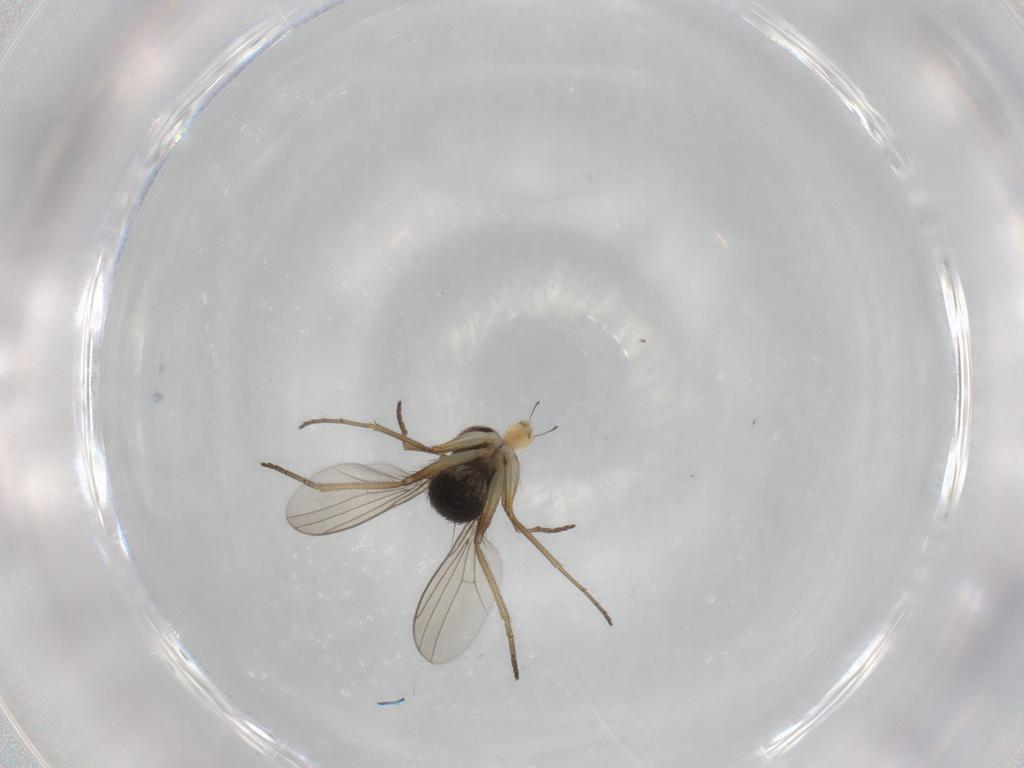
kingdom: Animalia
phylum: Arthropoda
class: Insecta
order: Diptera
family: Dolichopodidae
